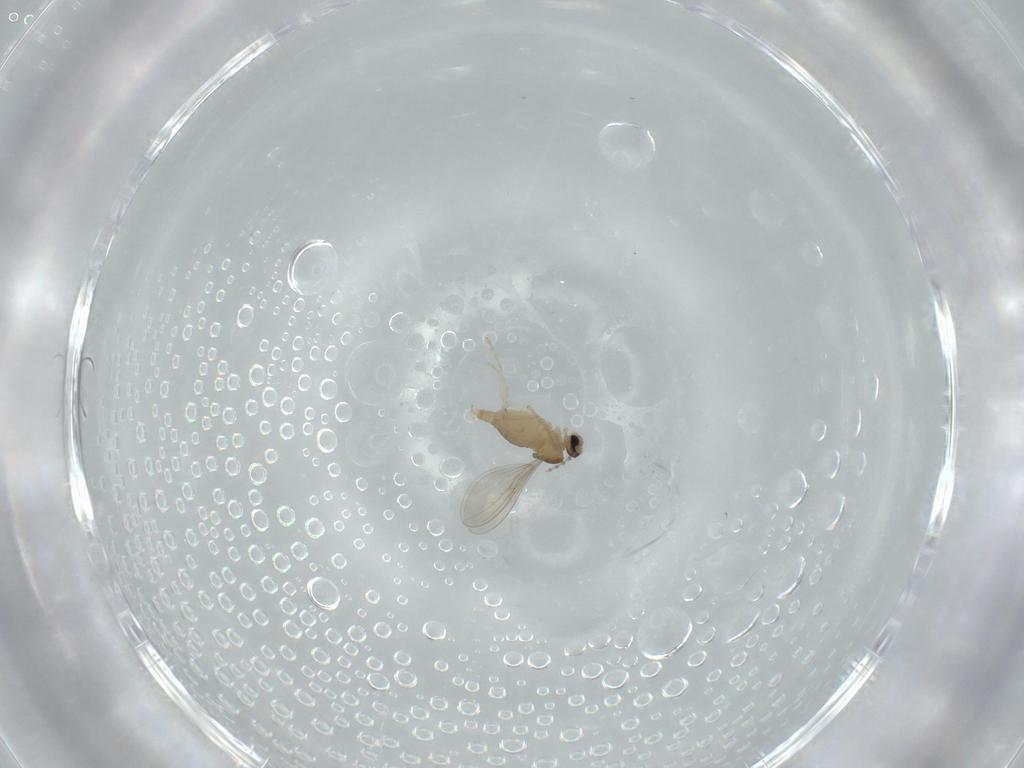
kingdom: Animalia
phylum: Arthropoda
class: Insecta
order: Diptera
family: Cecidomyiidae
